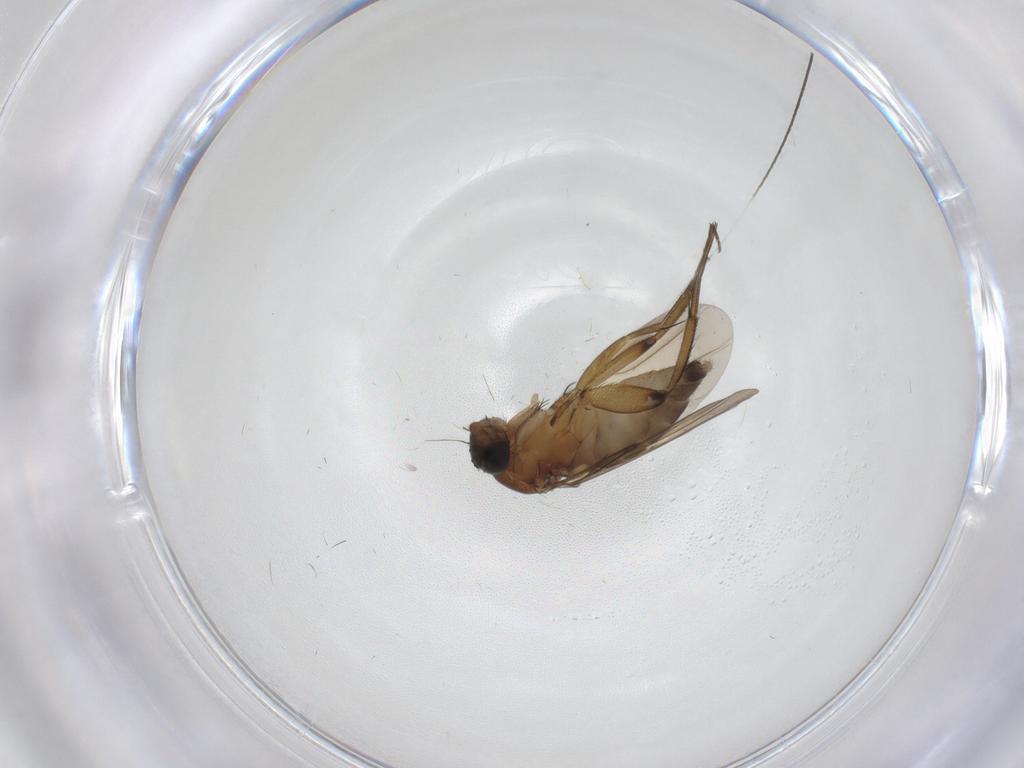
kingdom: Animalia
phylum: Arthropoda
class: Insecta
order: Diptera
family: Phoridae
